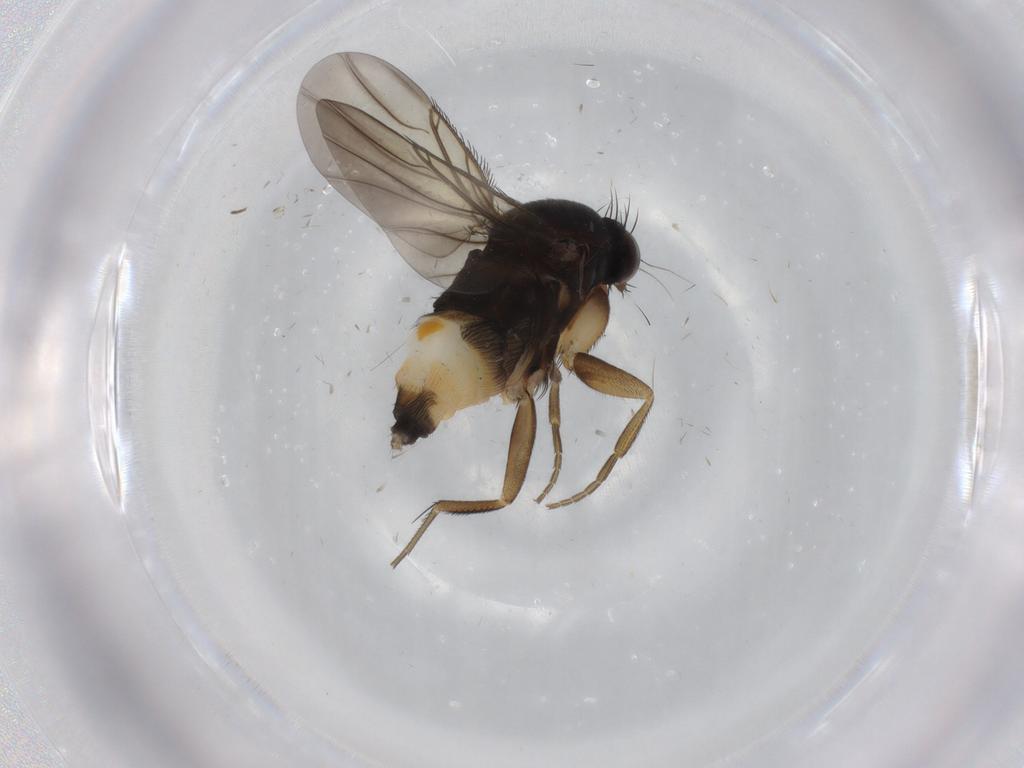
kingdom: Animalia
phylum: Arthropoda
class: Insecta
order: Diptera
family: Phoridae
